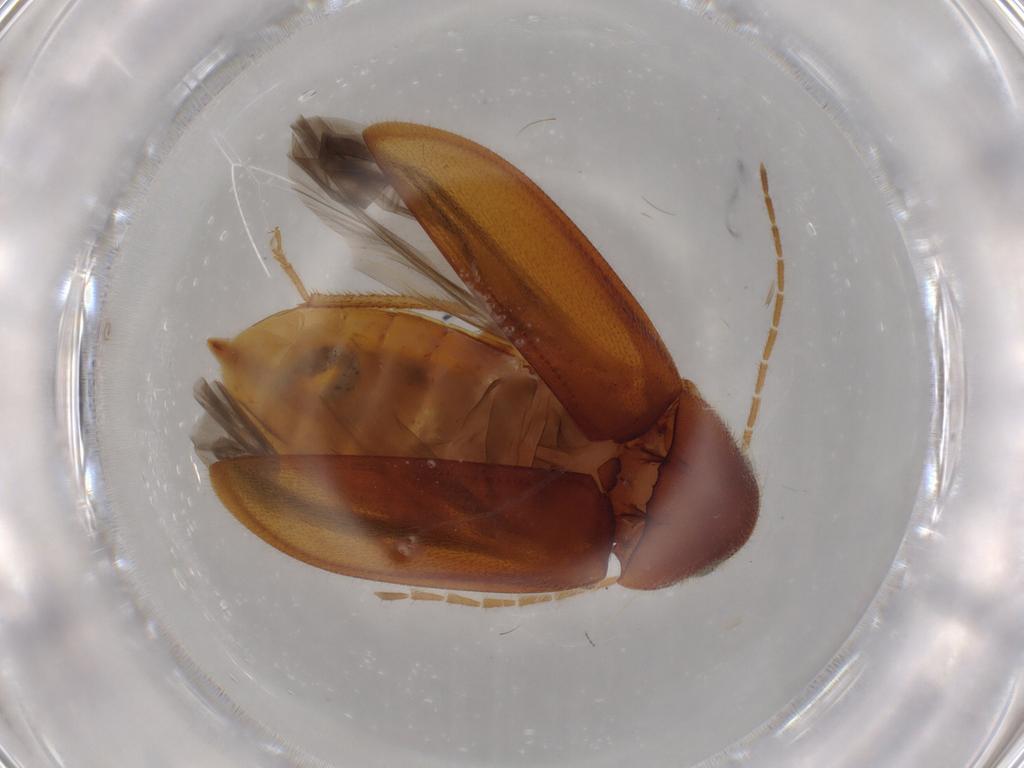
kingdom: Animalia
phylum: Arthropoda
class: Insecta
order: Coleoptera
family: Ptilodactylidae
